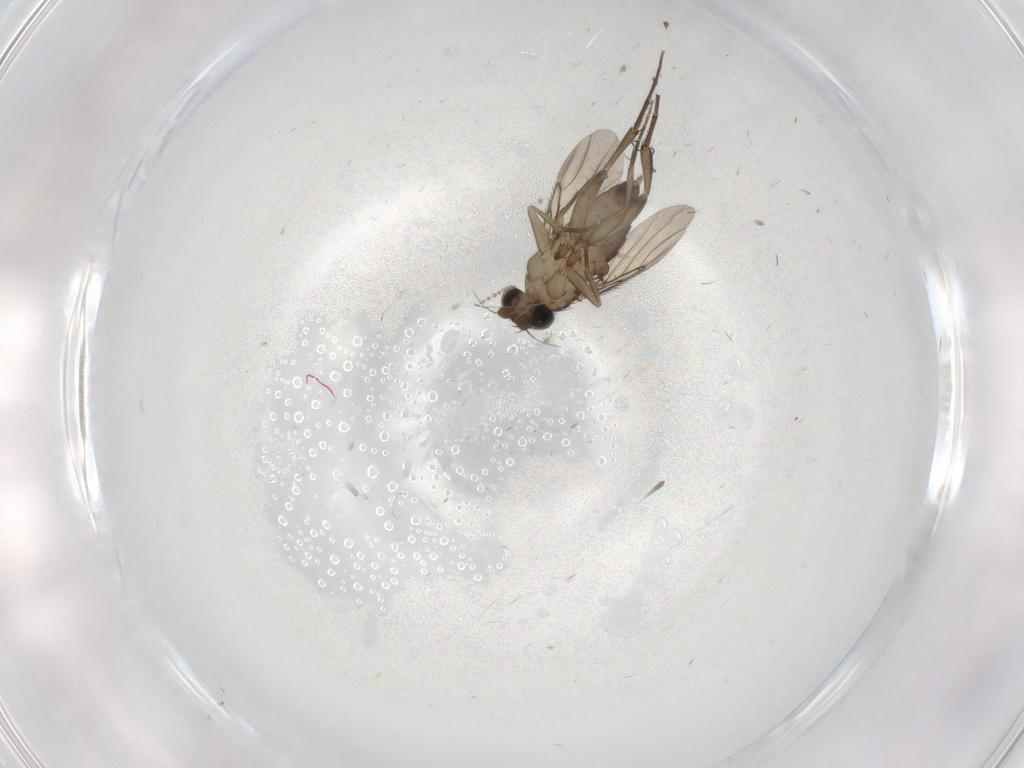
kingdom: Animalia
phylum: Arthropoda
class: Insecta
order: Diptera
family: Phoridae
